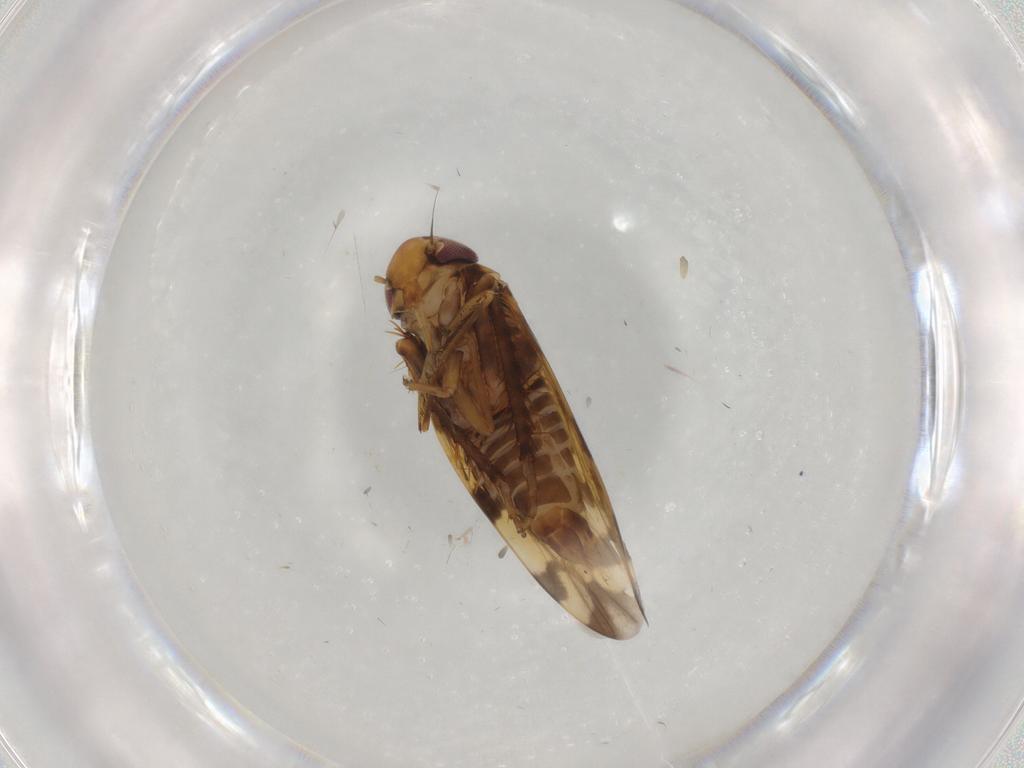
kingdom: Animalia
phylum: Arthropoda
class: Insecta
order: Hemiptera
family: Cicadellidae
